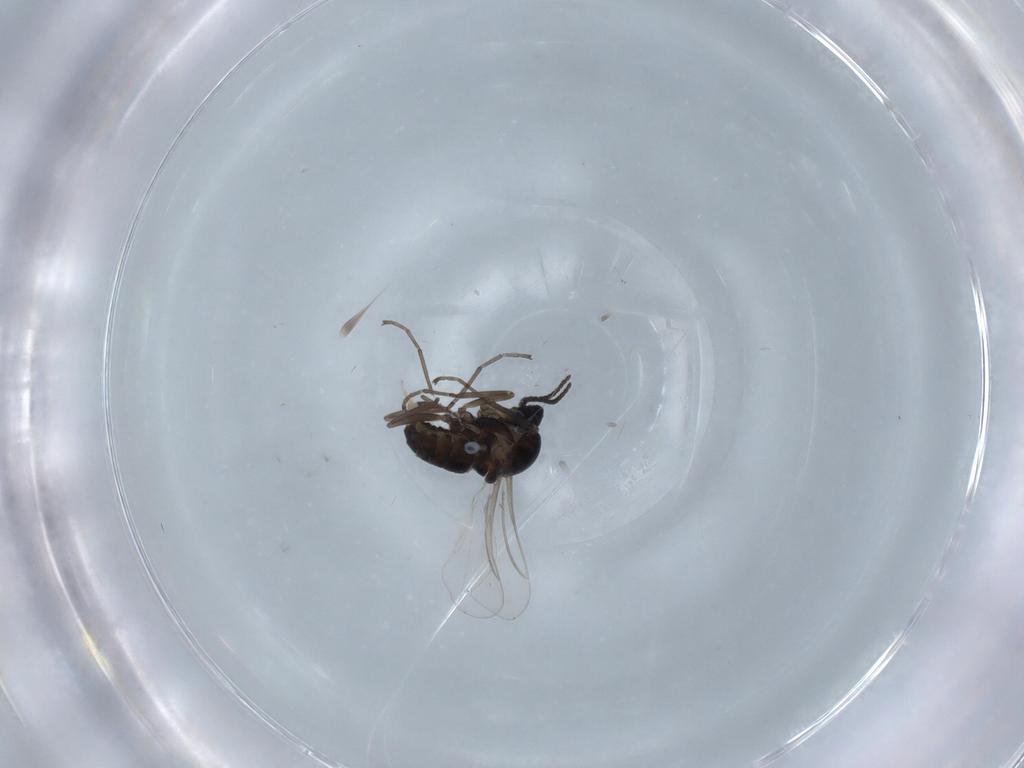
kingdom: Animalia
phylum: Arthropoda
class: Insecta
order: Diptera
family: Cecidomyiidae
